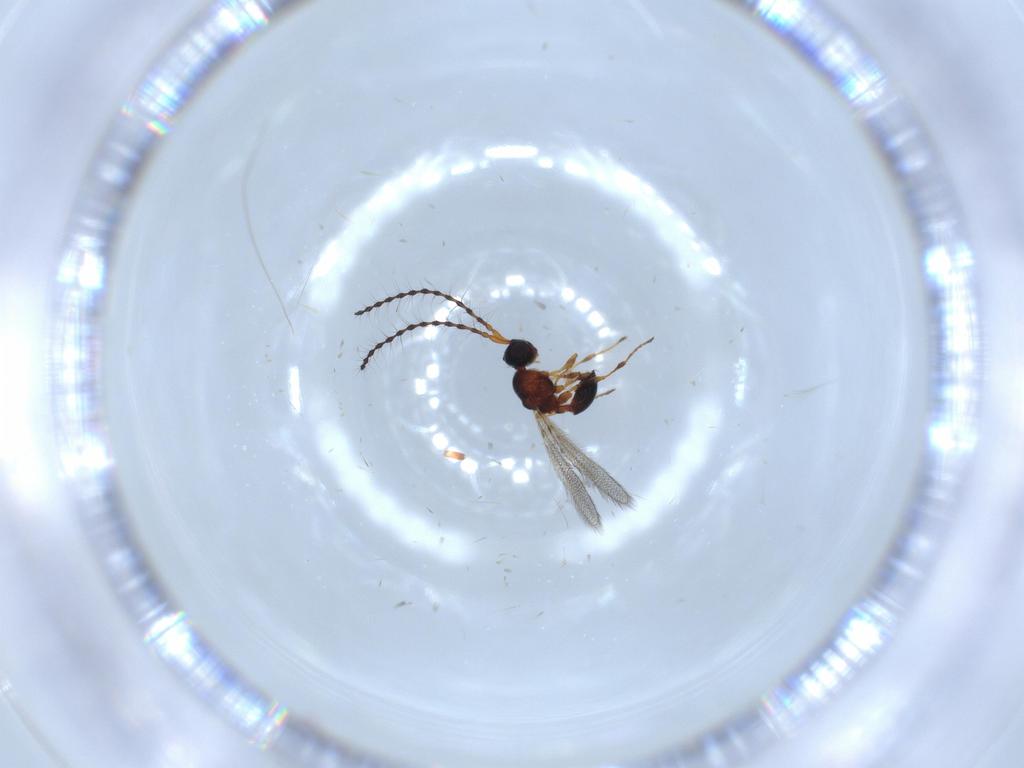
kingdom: Animalia
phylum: Arthropoda
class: Insecta
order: Hymenoptera
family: Diapriidae
